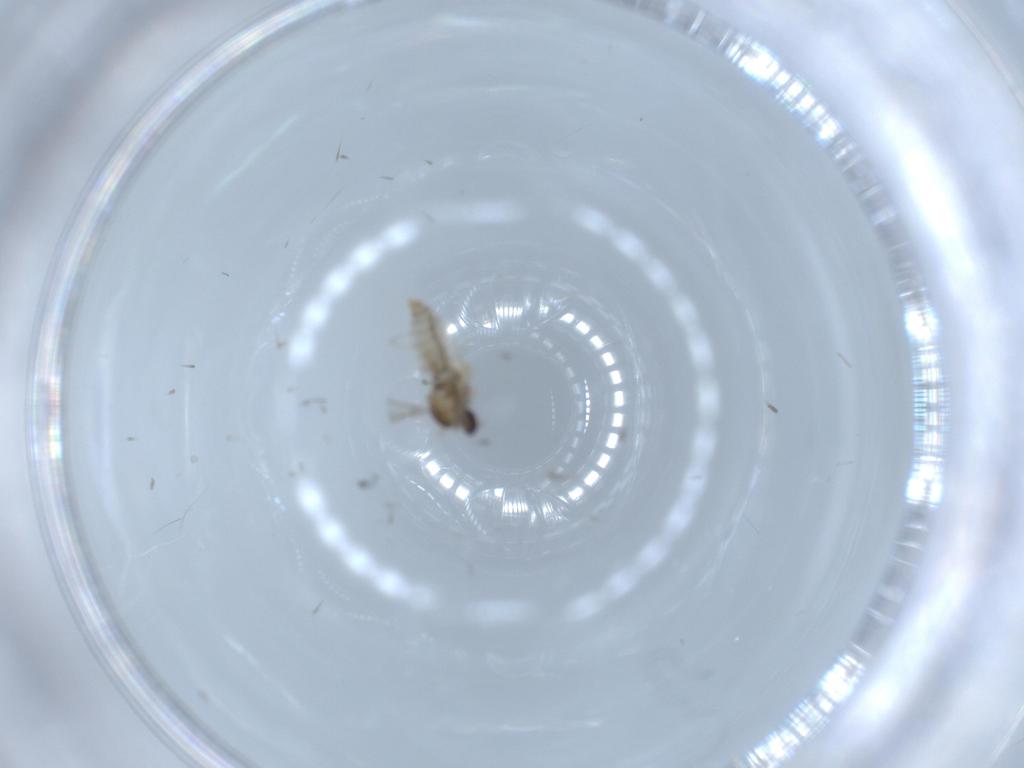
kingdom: Animalia
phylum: Arthropoda
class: Insecta
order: Diptera
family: Cecidomyiidae
